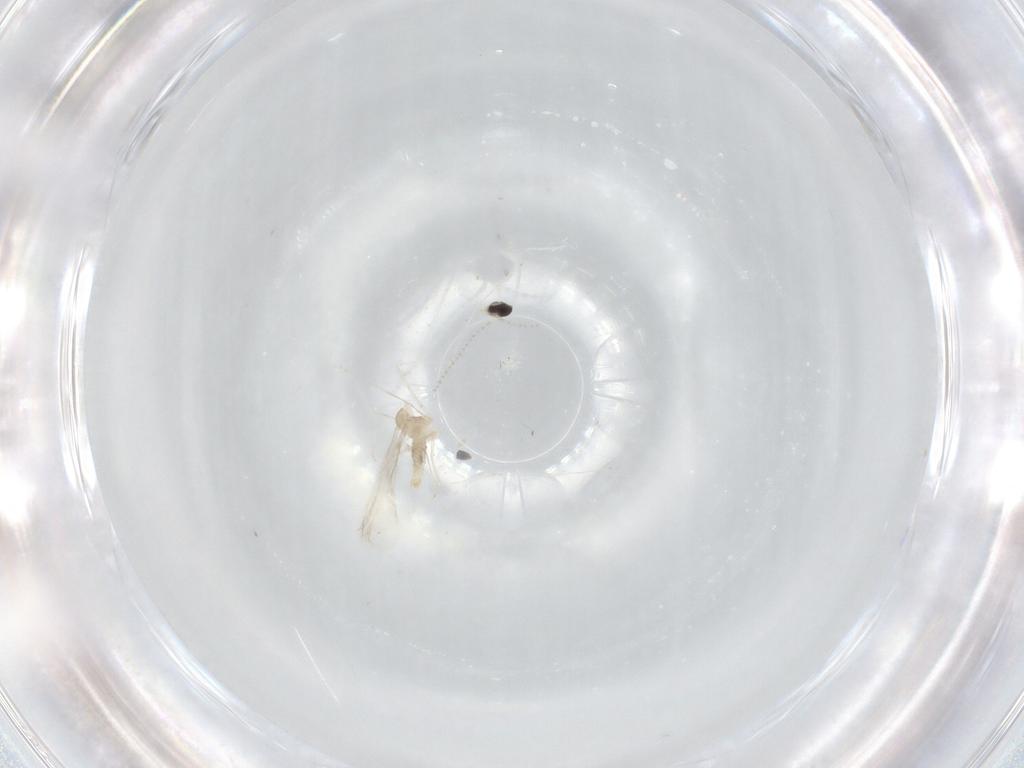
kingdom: Animalia
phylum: Arthropoda
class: Insecta
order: Diptera
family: Cecidomyiidae
